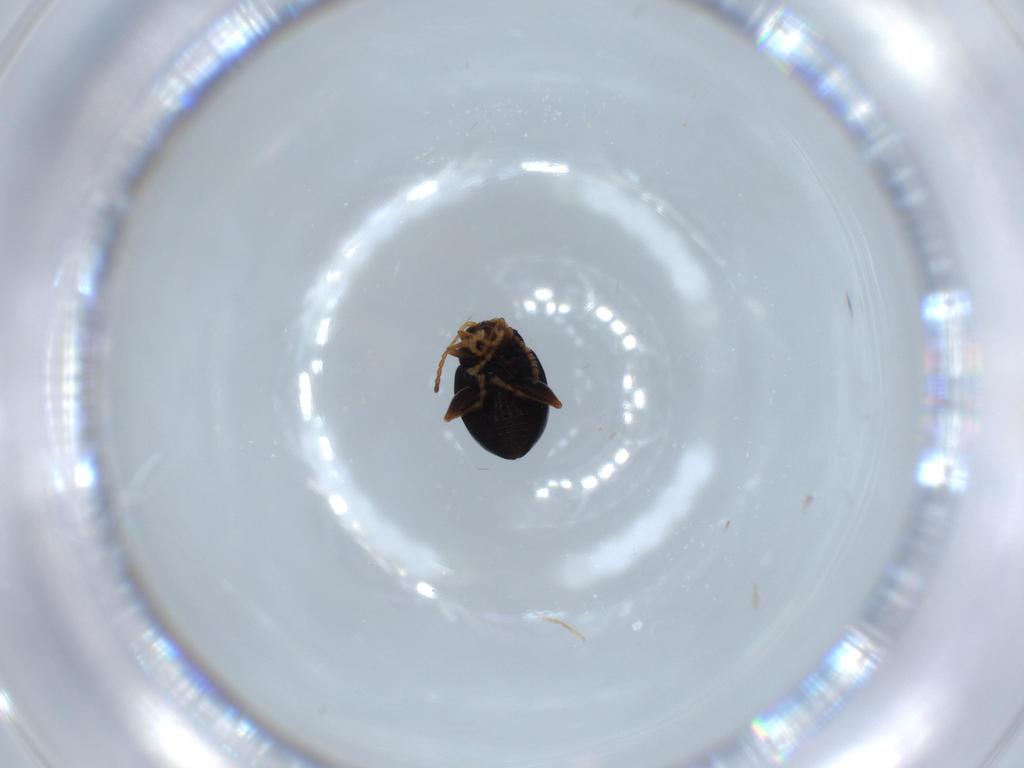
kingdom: Animalia
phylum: Arthropoda
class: Insecta
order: Coleoptera
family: Chrysomelidae
